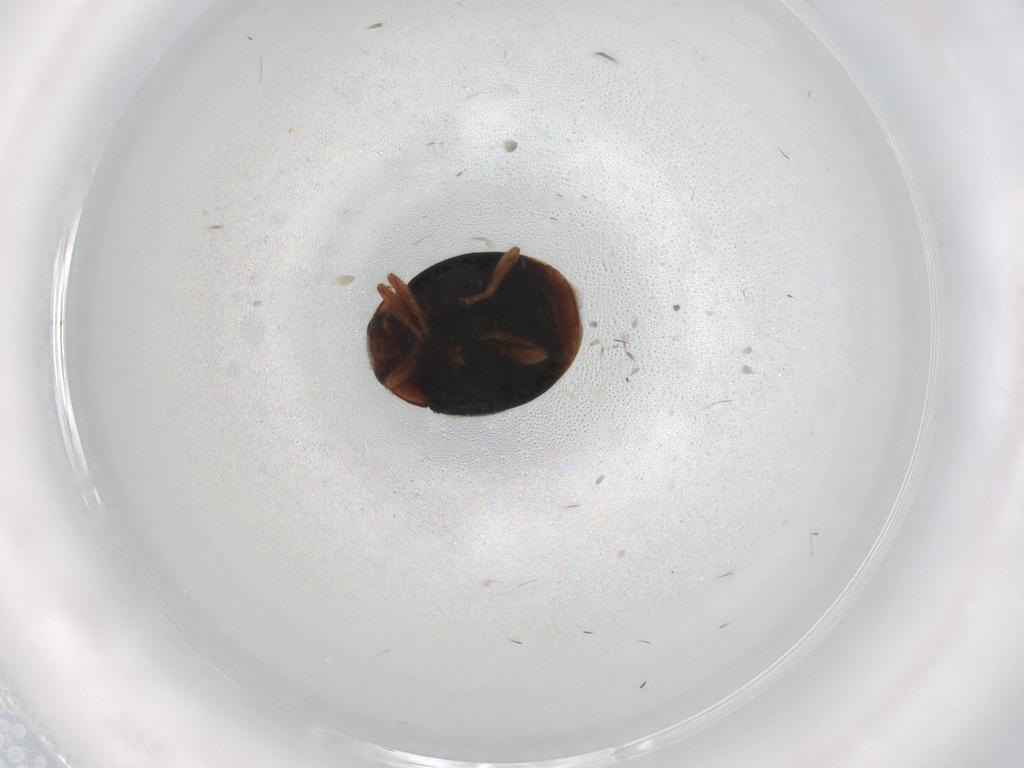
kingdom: Animalia
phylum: Arthropoda
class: Insecta
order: Coleoptera
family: Coccinellidae
